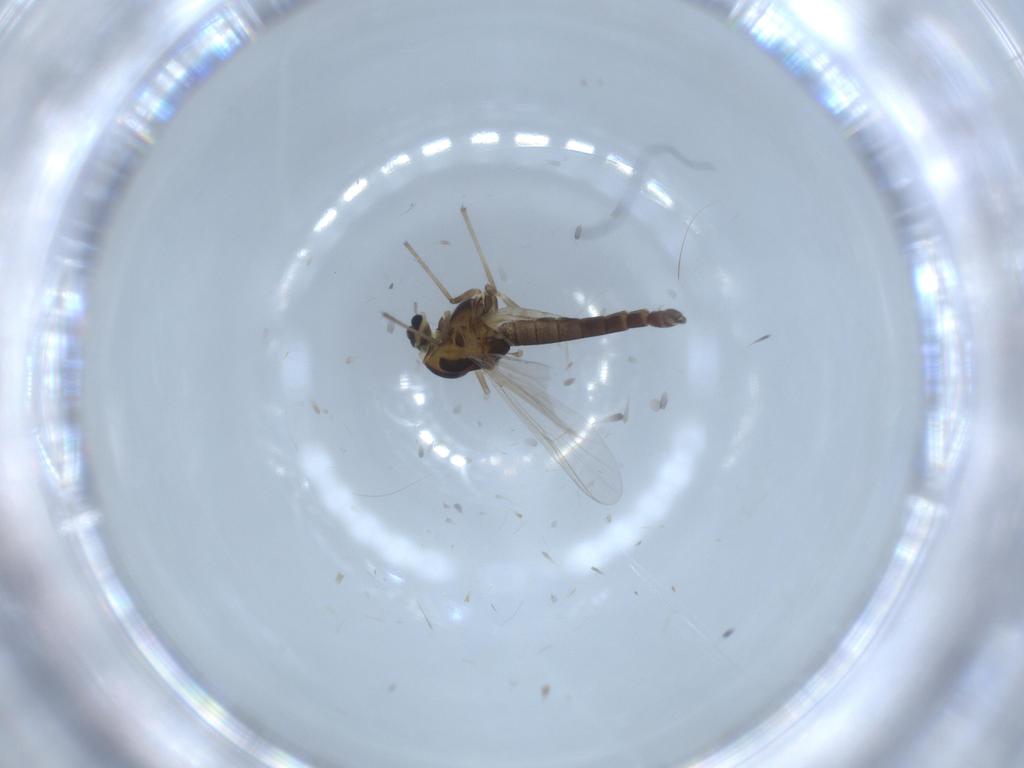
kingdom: Animalia
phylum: Arthropoda
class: Insecta
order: Diptera
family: Chironomidae
